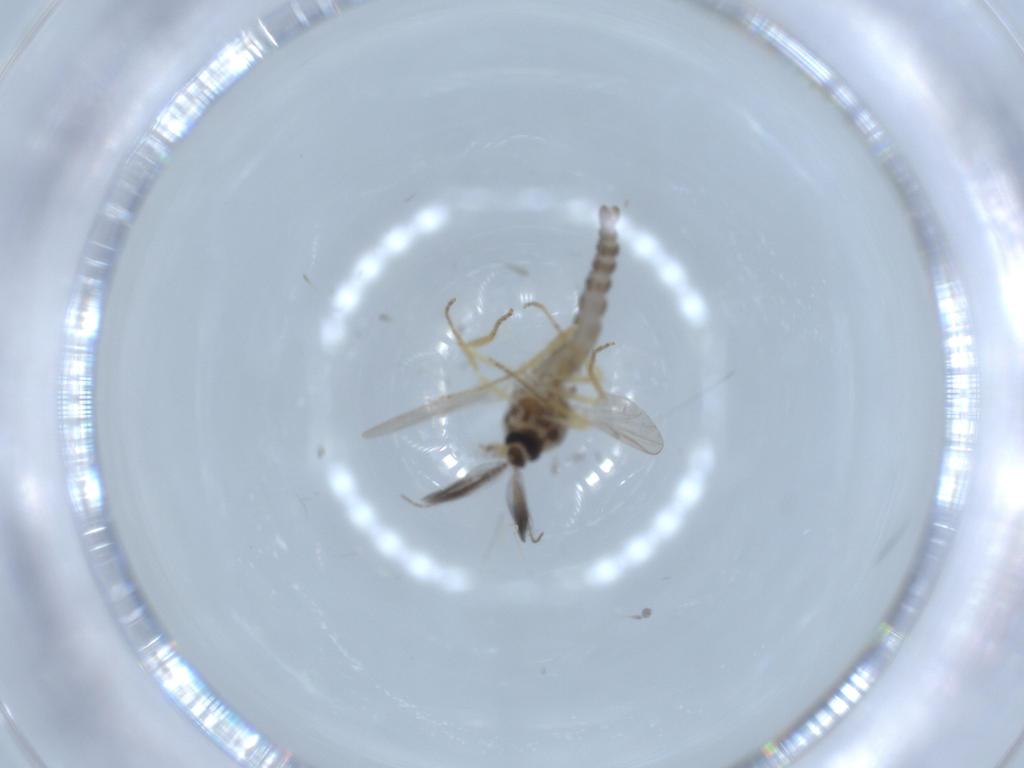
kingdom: Animalia
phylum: Arthropoda
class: Insecta
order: Diptera
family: Ceratopogonidae
